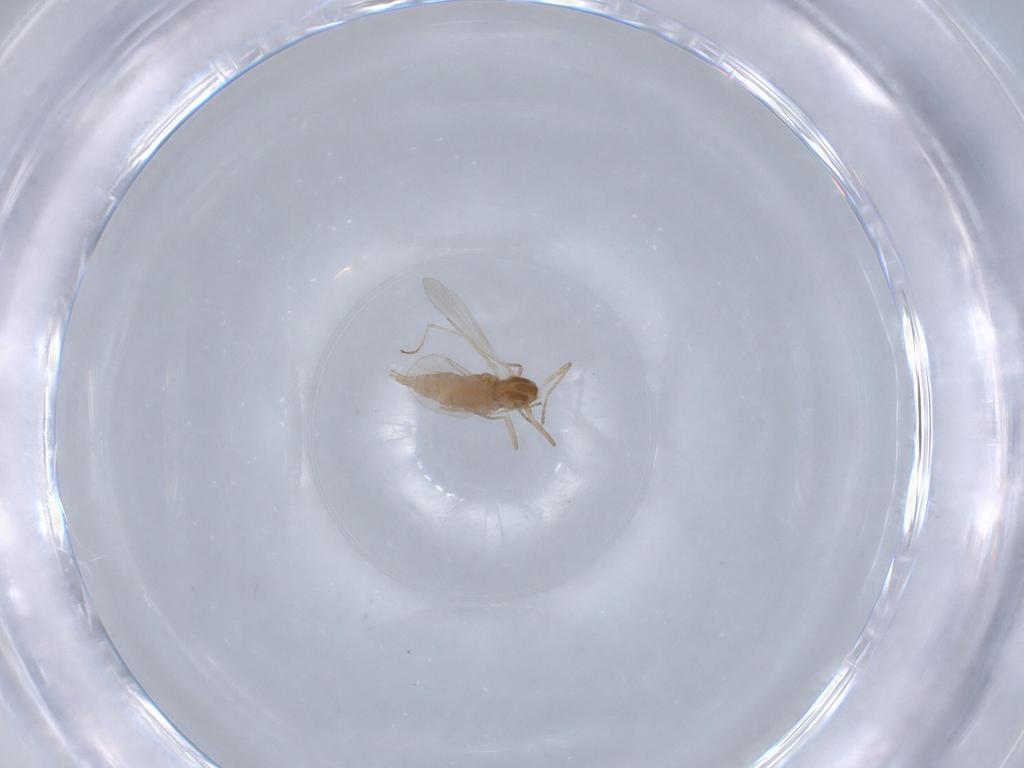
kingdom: Animalia
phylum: Arthropoda
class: Insecta
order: Diptera
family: Cecidomyiidae
